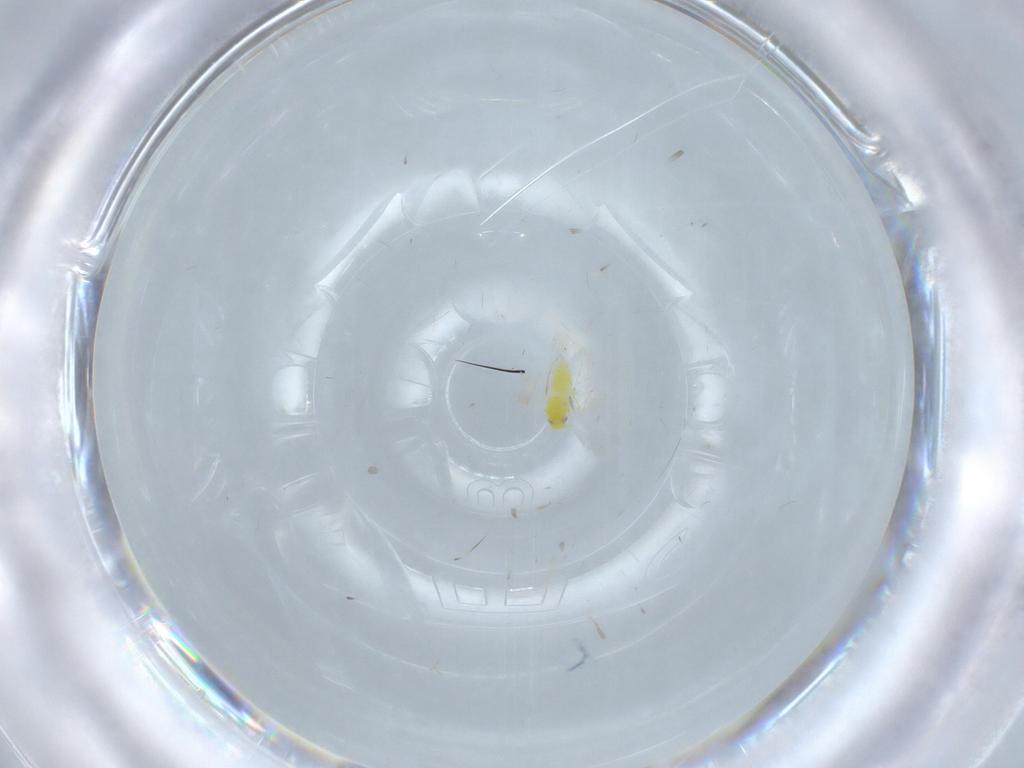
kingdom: Animalia
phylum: Arthropoda
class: Insecta
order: Hemiptera
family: Aleyrodidae
